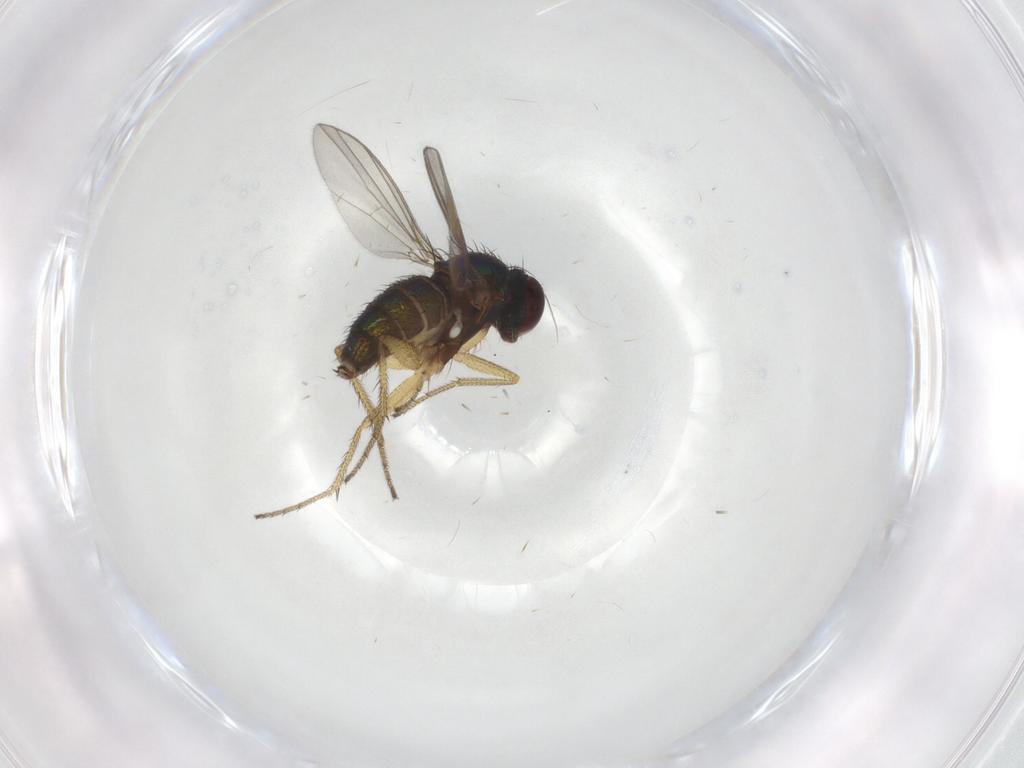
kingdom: Animalia
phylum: Arthropoda
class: Insecta
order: Diptera
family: Dolichopodidae
